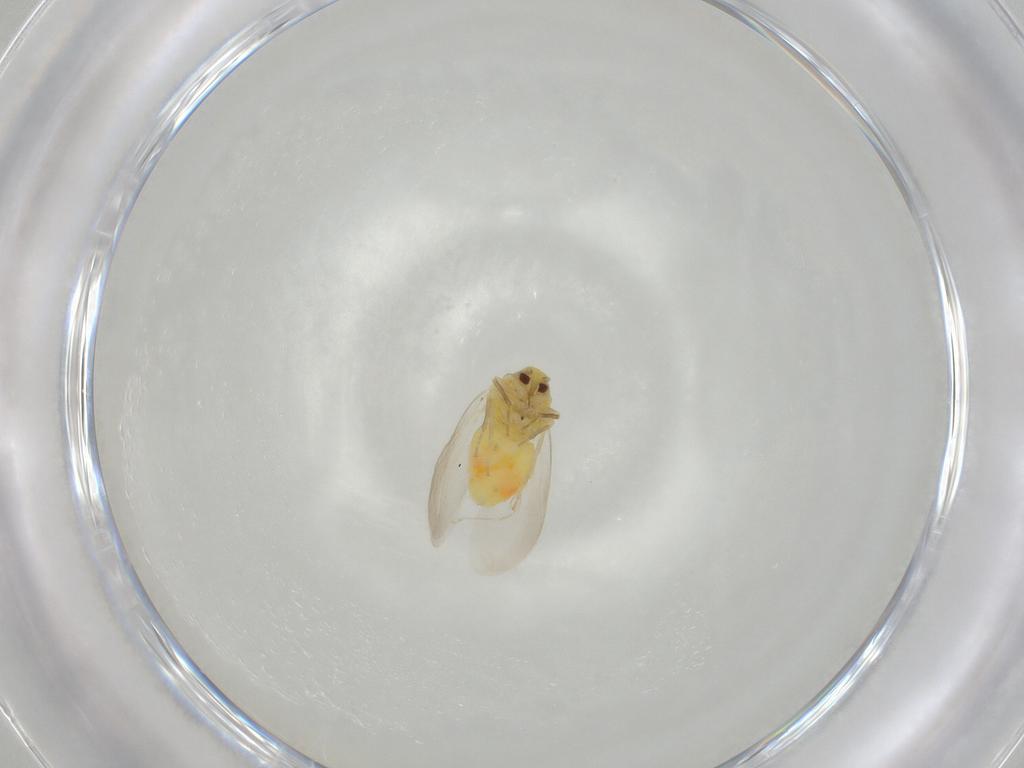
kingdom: Animalia
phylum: Arthropoda
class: Insecta
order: Hemiptera
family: Aleyrodidae
